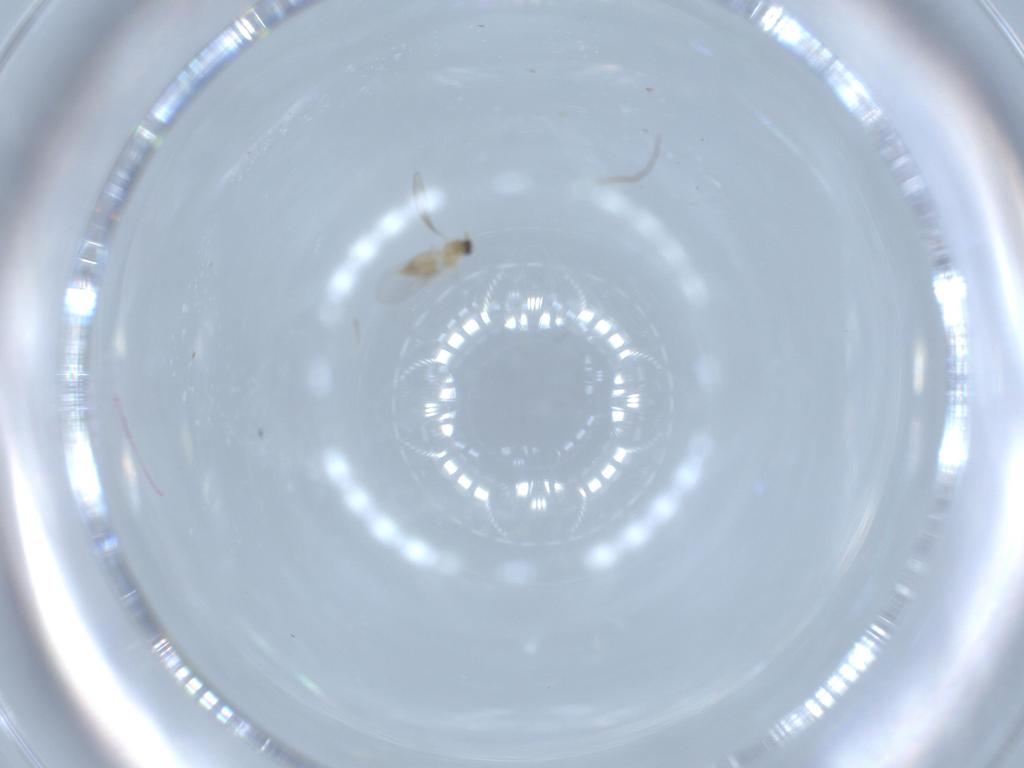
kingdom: Animalia
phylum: Arthropoda
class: Insecta
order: Diptera
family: Cecidomyiidae
